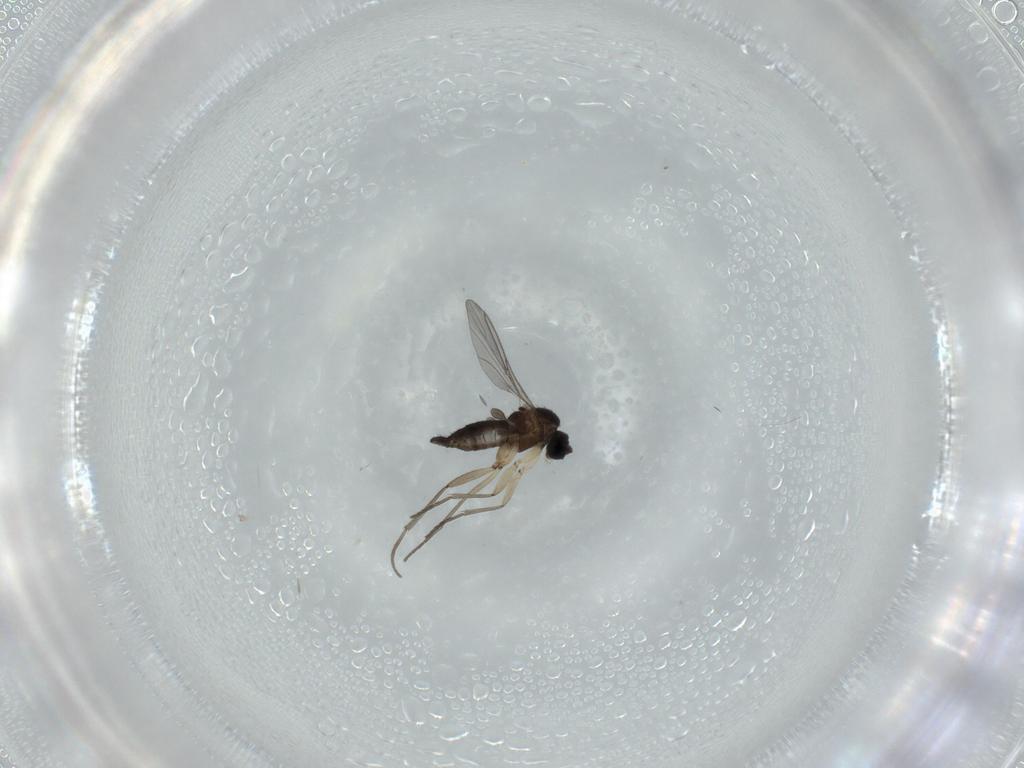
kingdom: Animalia
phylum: Arthropoda
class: Insecta
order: Diptera
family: Sciaridae
